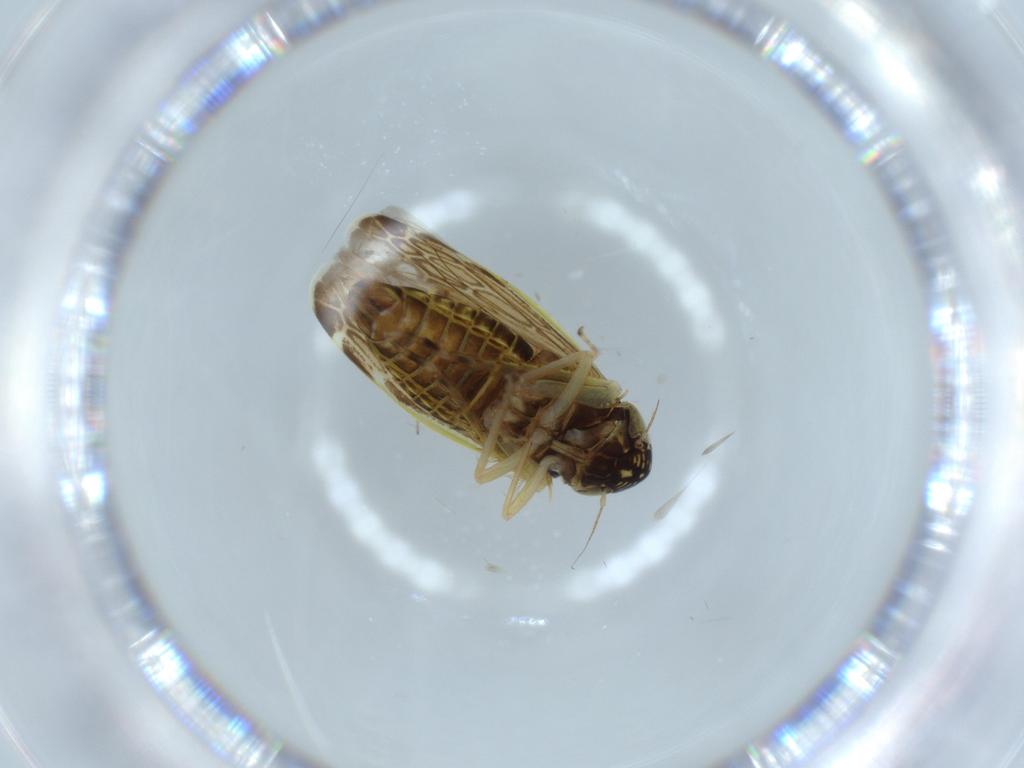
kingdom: Animalia
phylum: Arthropoda
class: Insecta
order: Hemiptera
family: Cicadellidae
